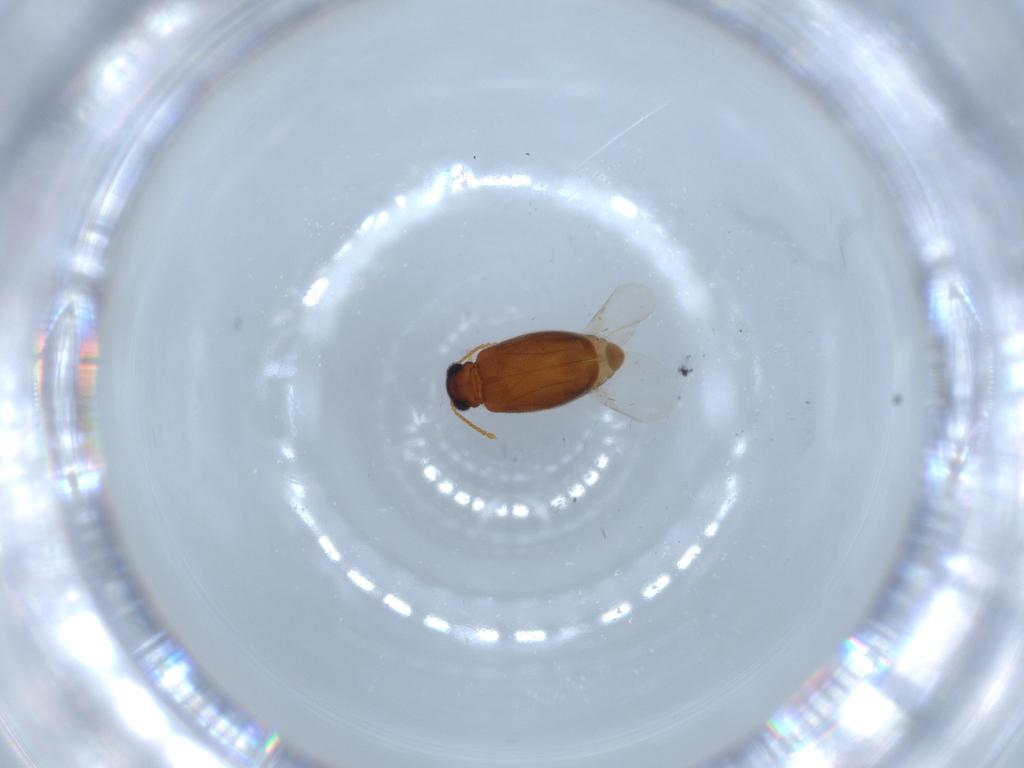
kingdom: Animalia
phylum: Arthropoda
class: Insecta
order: Coleoptera
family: Aderidae
